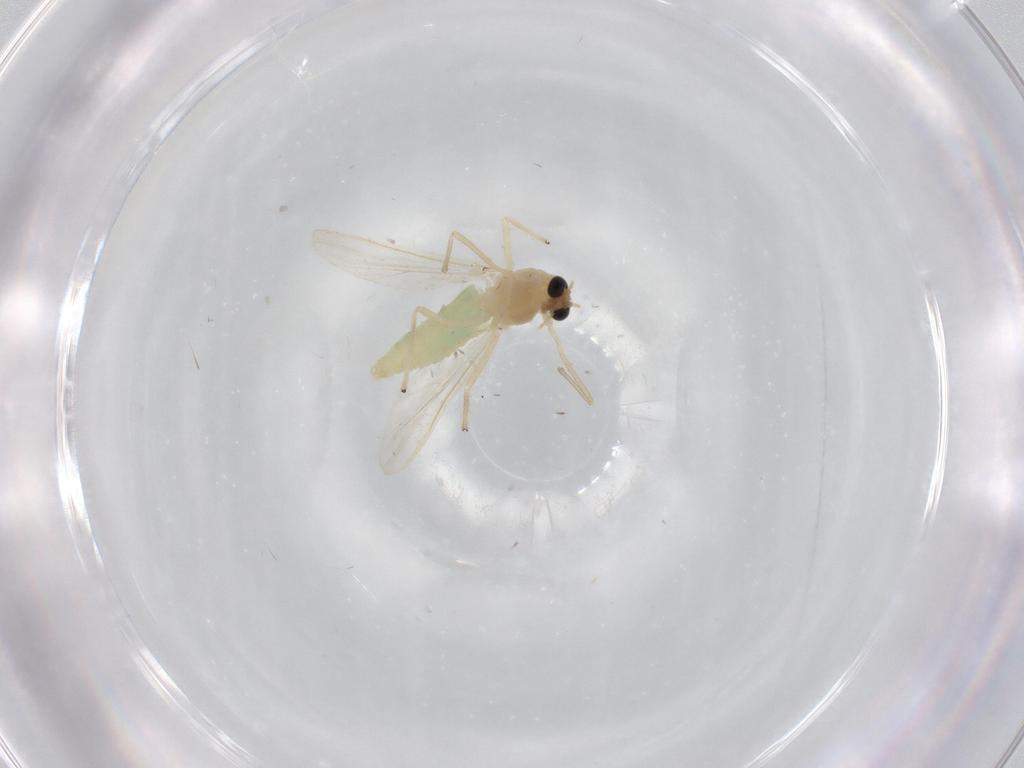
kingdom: Animalia
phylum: Arthropoda
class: Insecta
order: Diptera
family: Chironomidae
